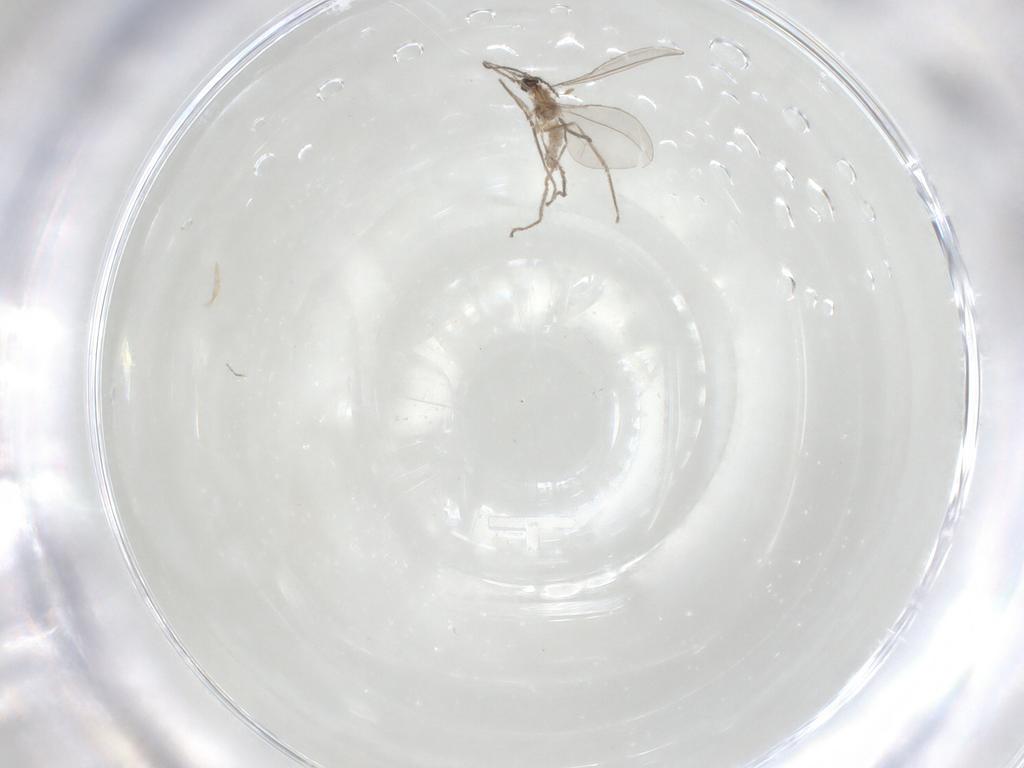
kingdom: Animalia
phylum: Arthropoda
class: Insecta
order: Diptera
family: Cecidomyiidae
